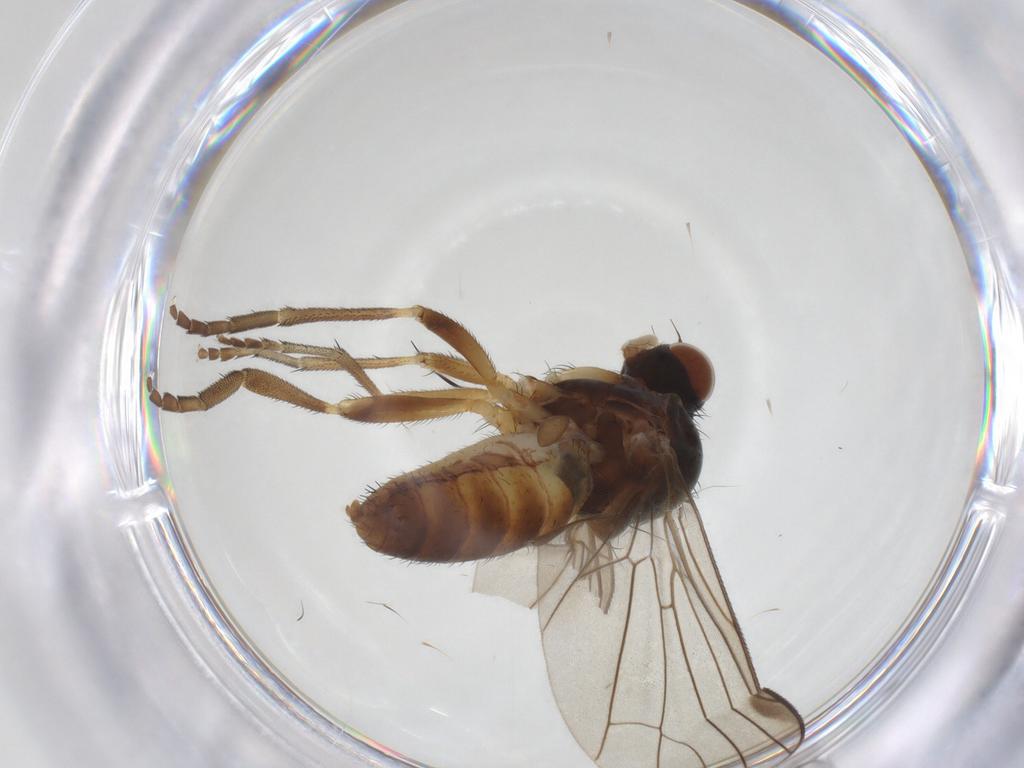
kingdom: Animalia
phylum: Arthropoda
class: Insecta
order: Diptera
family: Platypezidae
